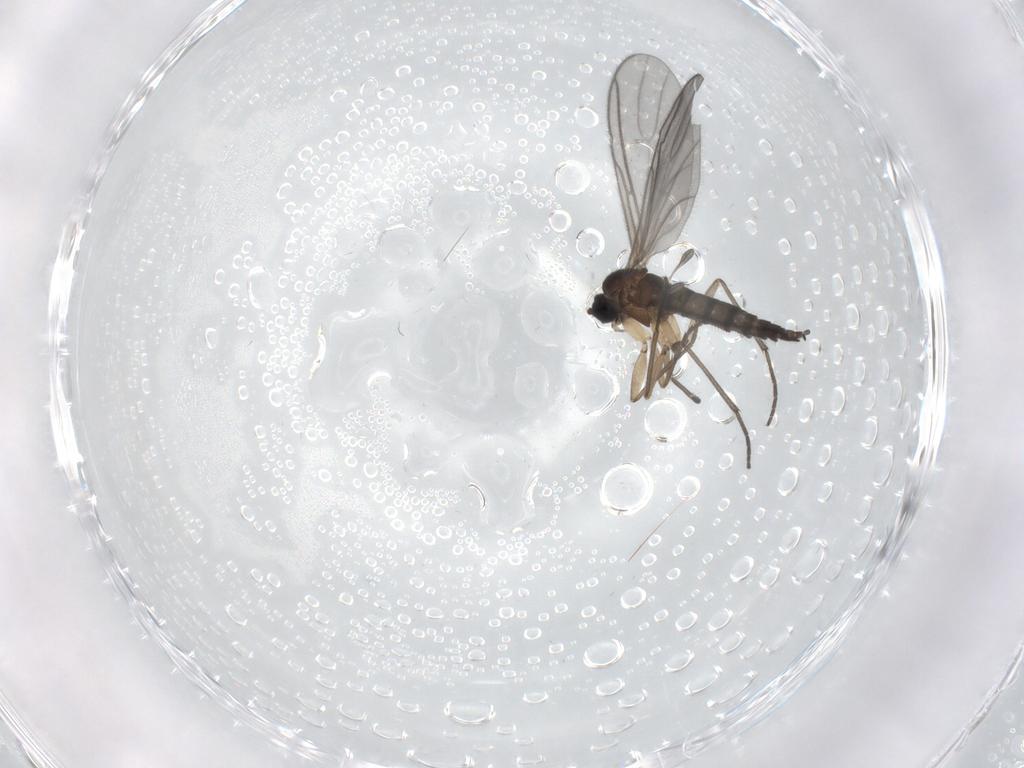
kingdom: Animalia
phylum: Arthropoda
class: Insecta
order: Diptera
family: Sciaridae
